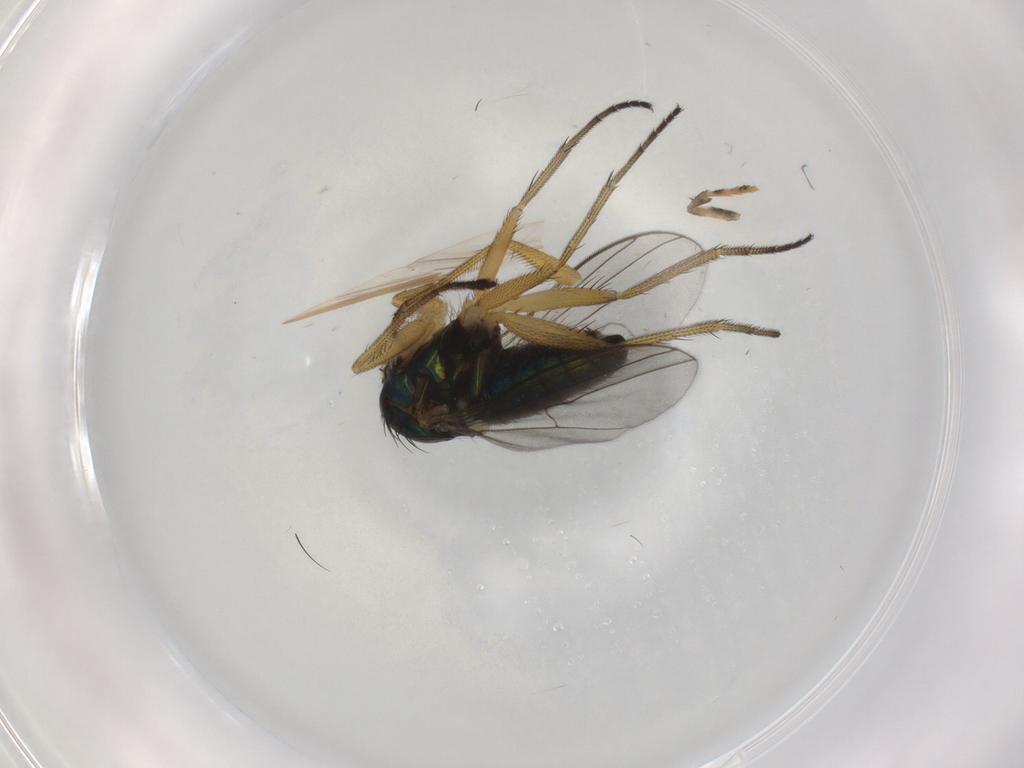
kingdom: Animalia
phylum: Arthropoda
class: Insecta
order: Diptera
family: Dolichopodidae
